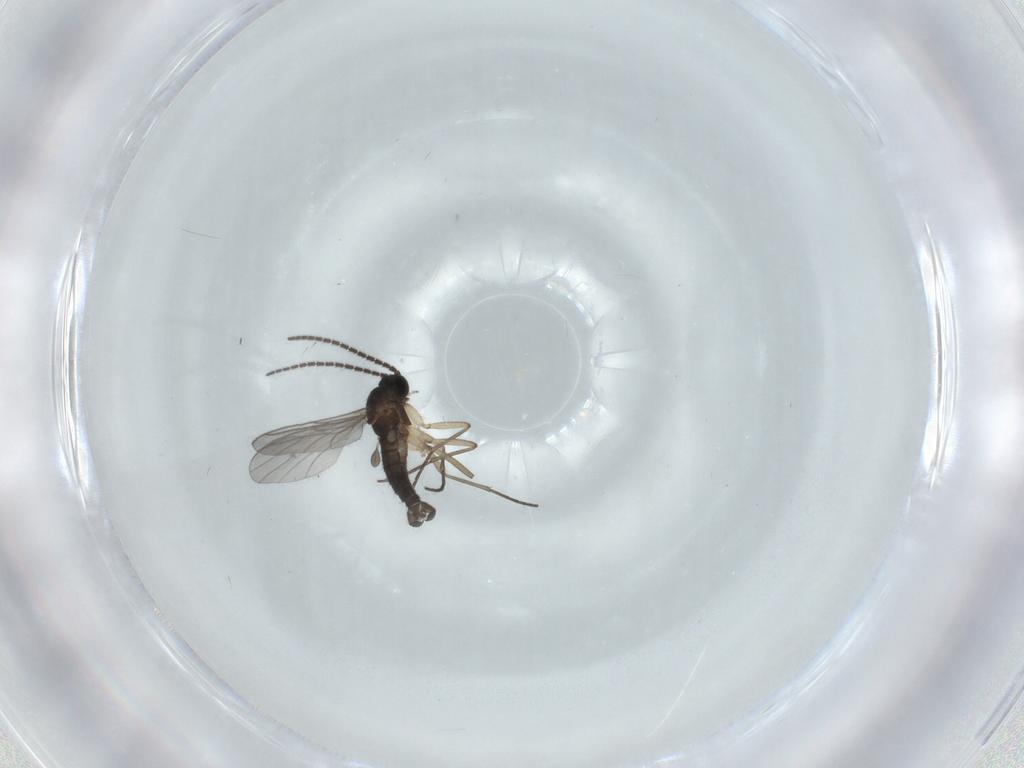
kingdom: Animalia
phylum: Arthropoda
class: Insecta
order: Diptera
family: Sciaridae
